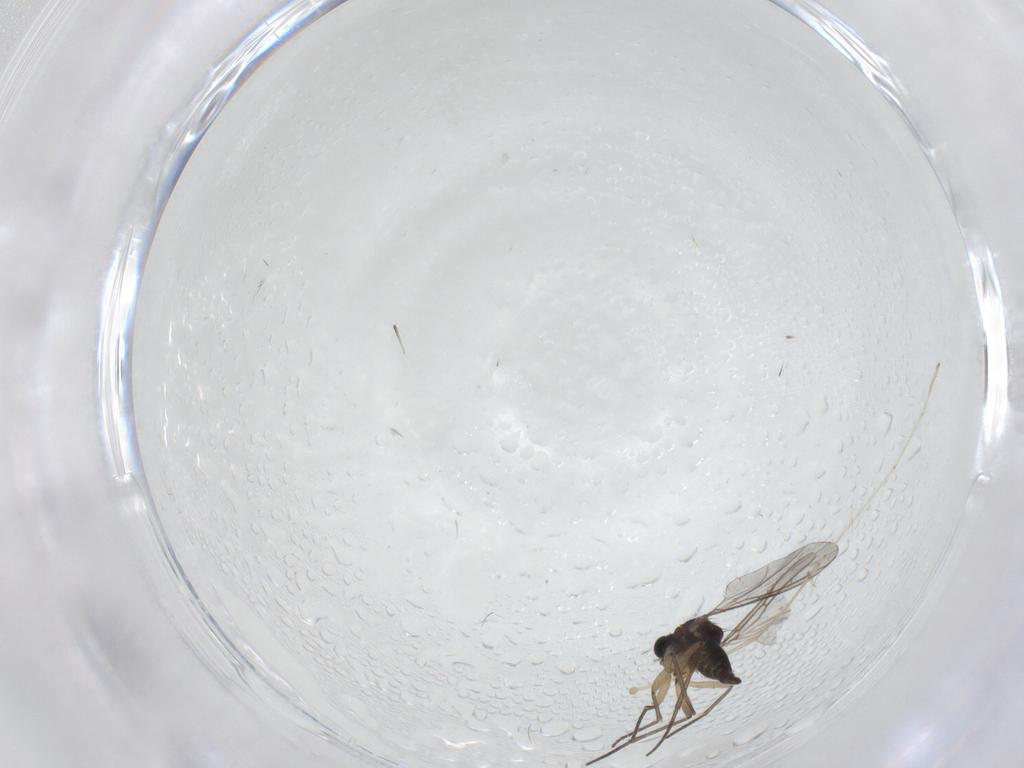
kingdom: Animalia
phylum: Arthropoda
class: Insecta
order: Diptera
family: Cecidomyiidae
